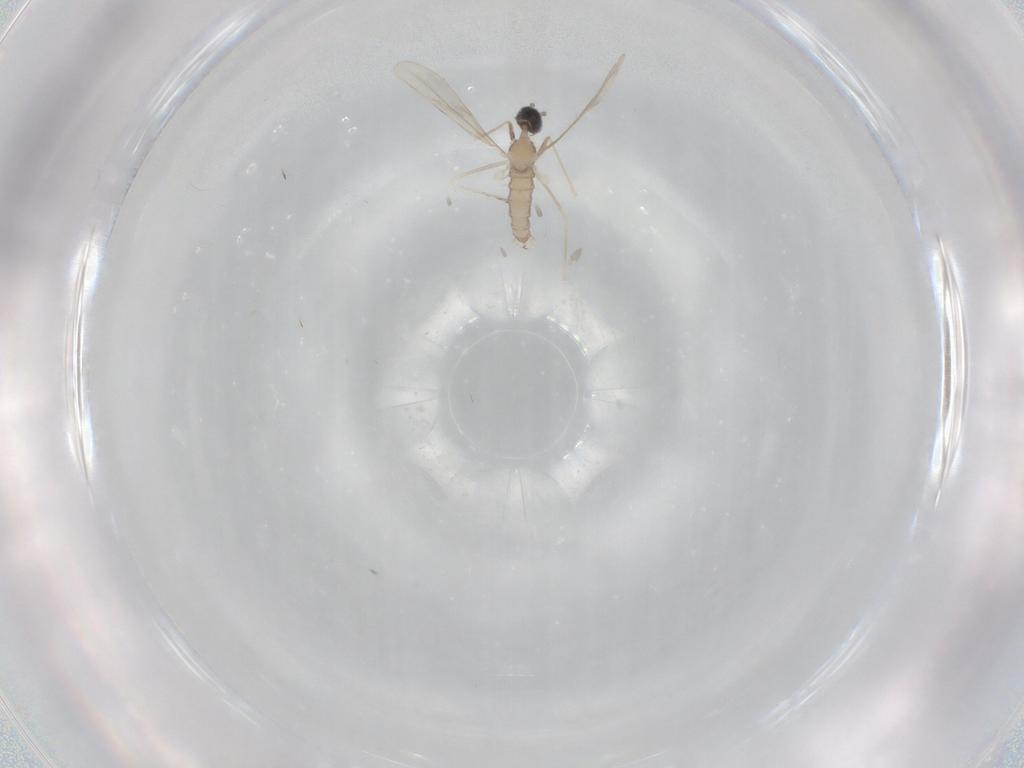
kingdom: Animalia
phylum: Arthropoda
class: Insecta
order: Diptera
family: Cecidomyiidae
